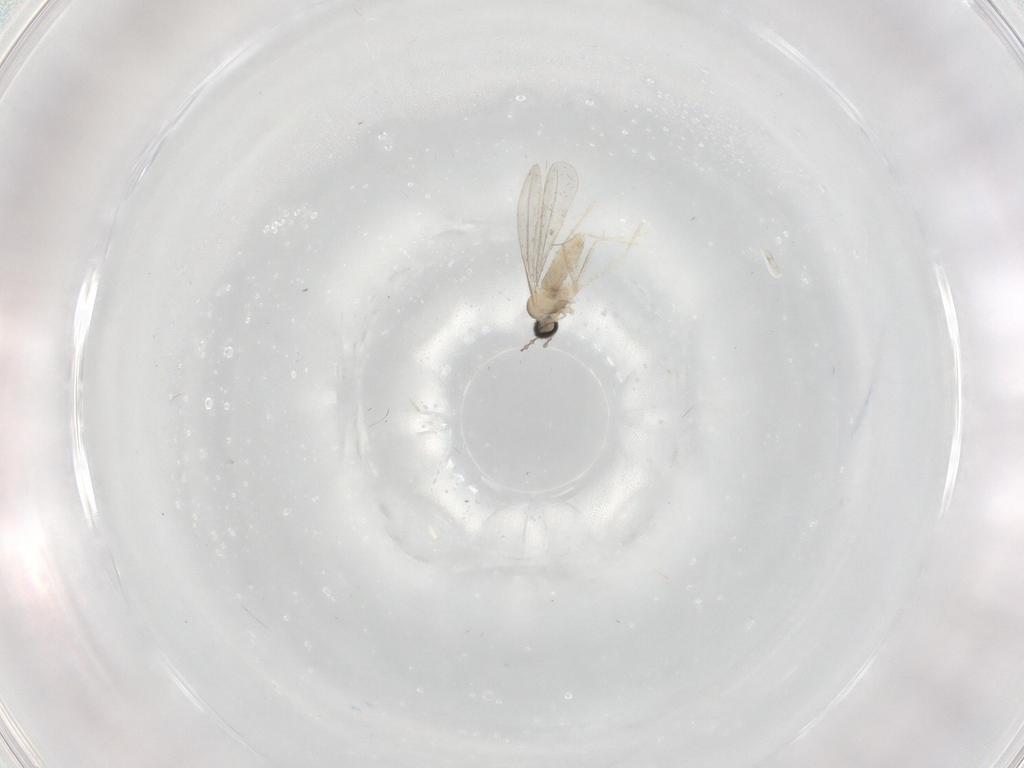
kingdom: Animalia
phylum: Arthropoda
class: Insecta
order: Diptera
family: Cecidomyiidae
